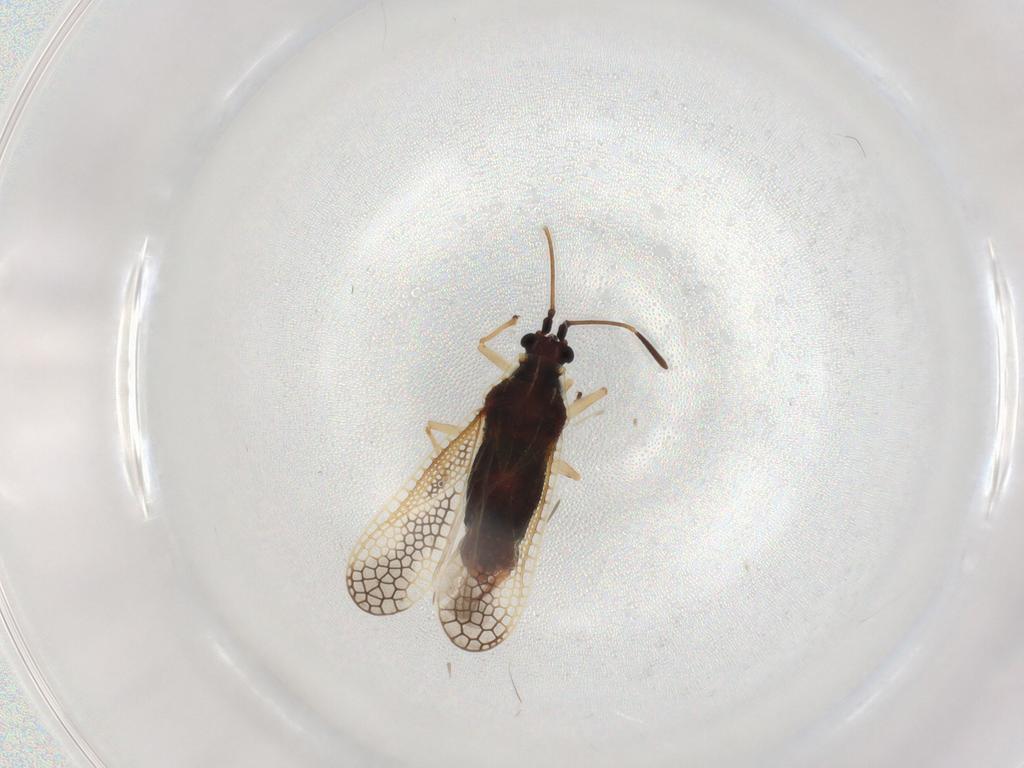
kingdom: Animalia
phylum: Arthropoda
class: Insecta
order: Hemiptera
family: Tingidae
